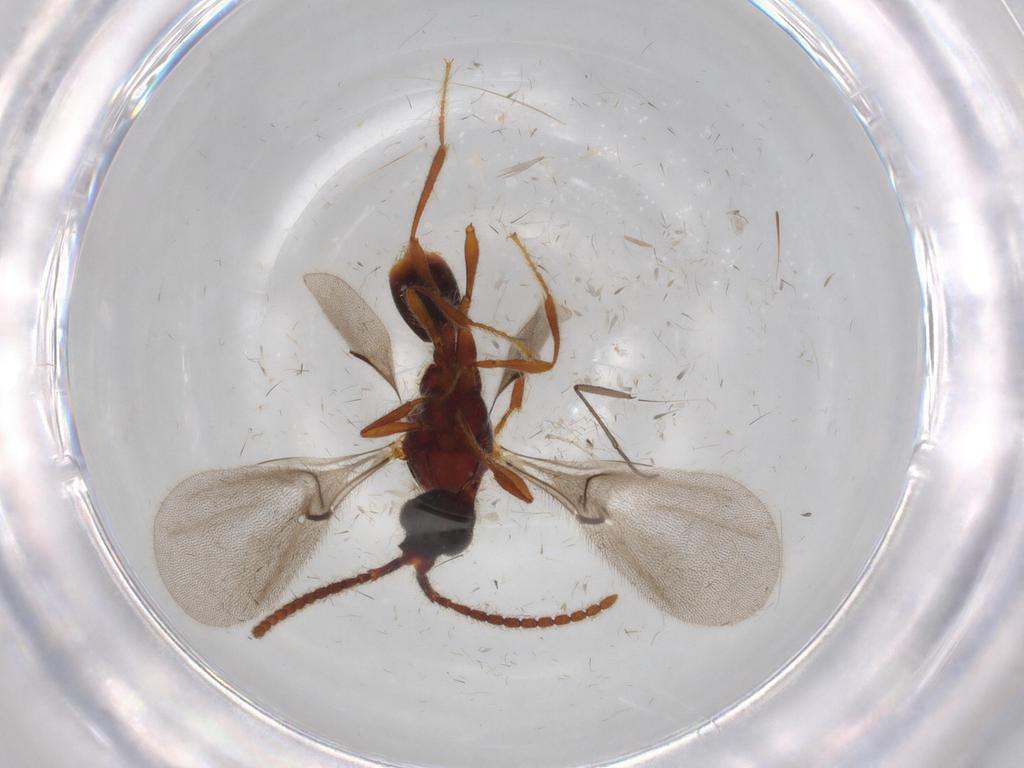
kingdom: Animalia
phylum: Arthropoda
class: Insecta
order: Hymenoptera
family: Diapriidae
